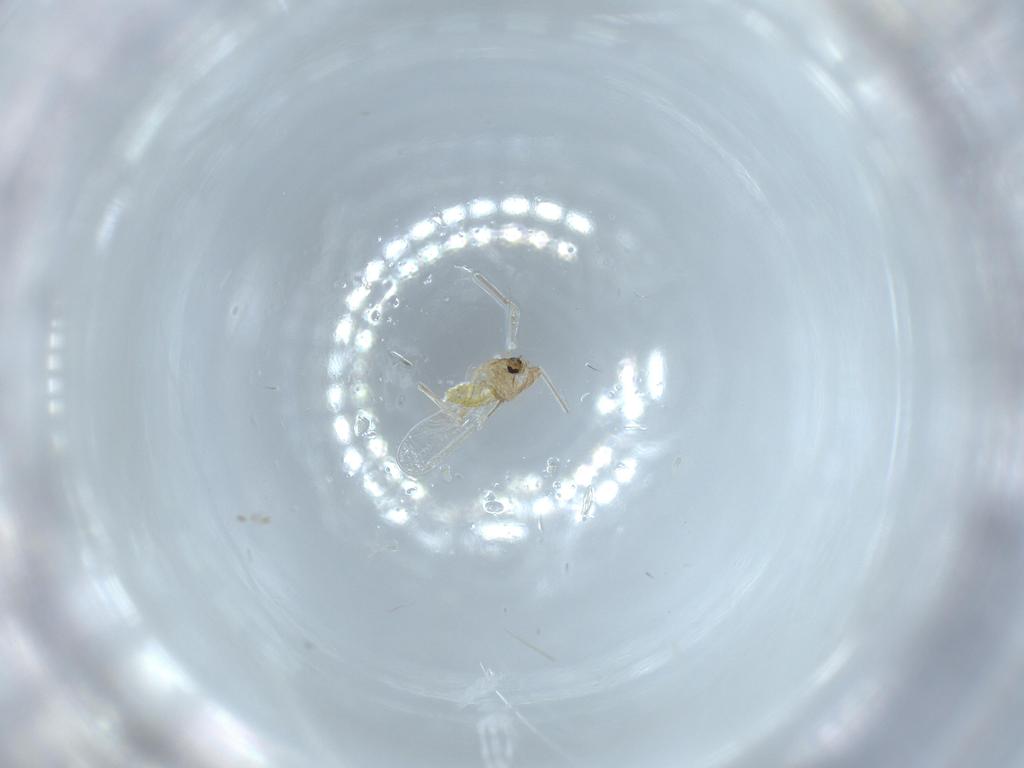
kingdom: Animalia
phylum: Arthropoda
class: Insecta
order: Diptera
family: Chironomidae
